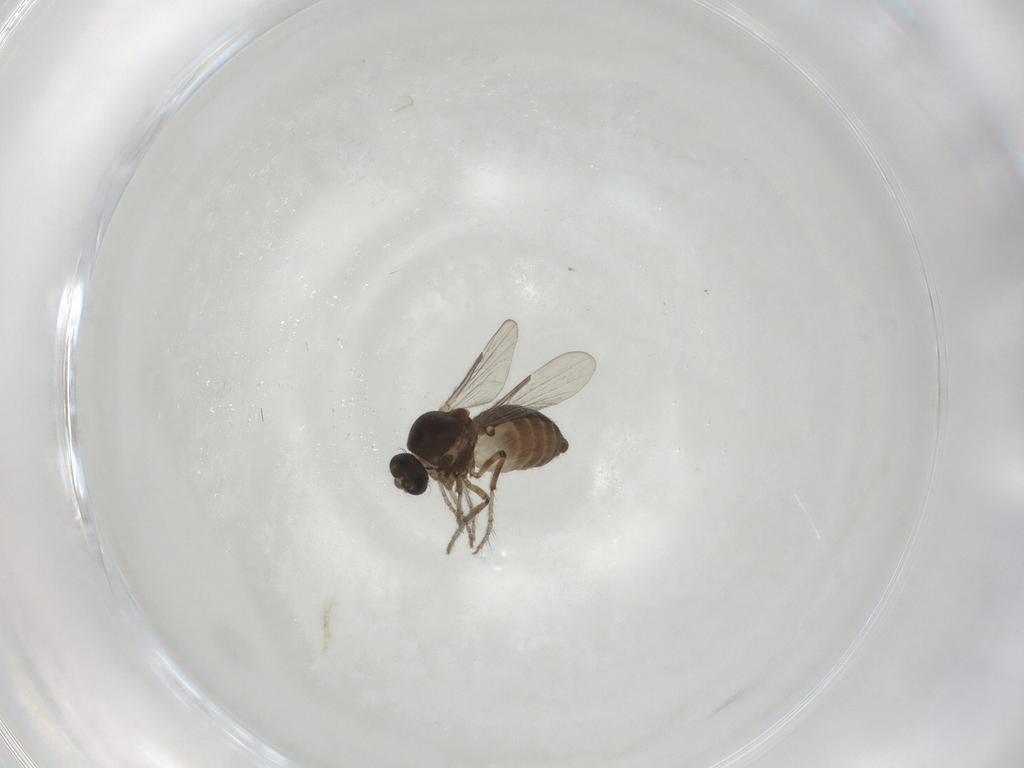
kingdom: Animalia
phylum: Arthropoda
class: Insecta
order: Diptera
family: Ceratopogonidae
